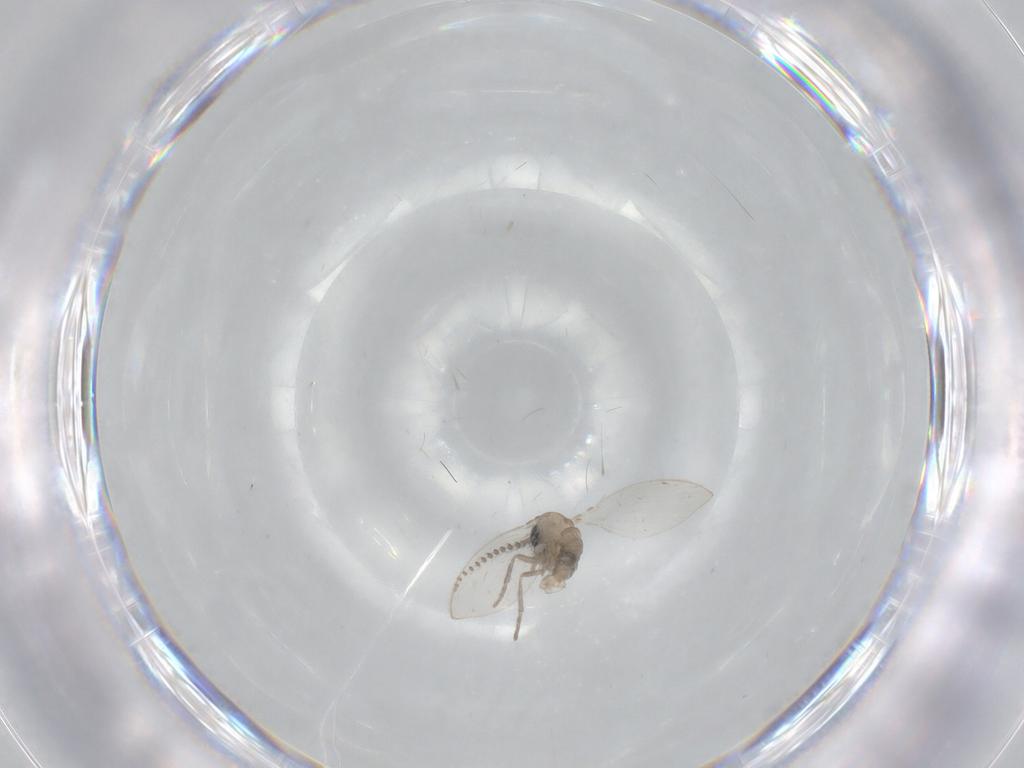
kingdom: Animalia
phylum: Arthropoda
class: Insecta
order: Diptera
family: Psychodidae
